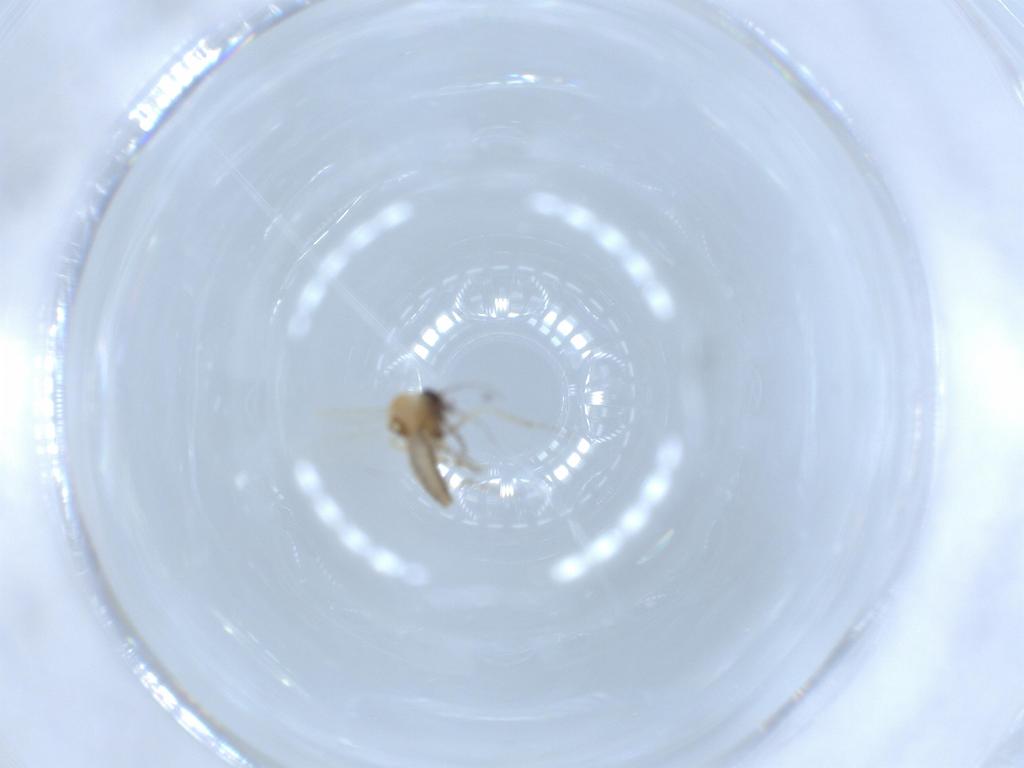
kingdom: Animalia
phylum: Arthropoda
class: Insecta
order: Diptera
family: Ceratopogonidae
